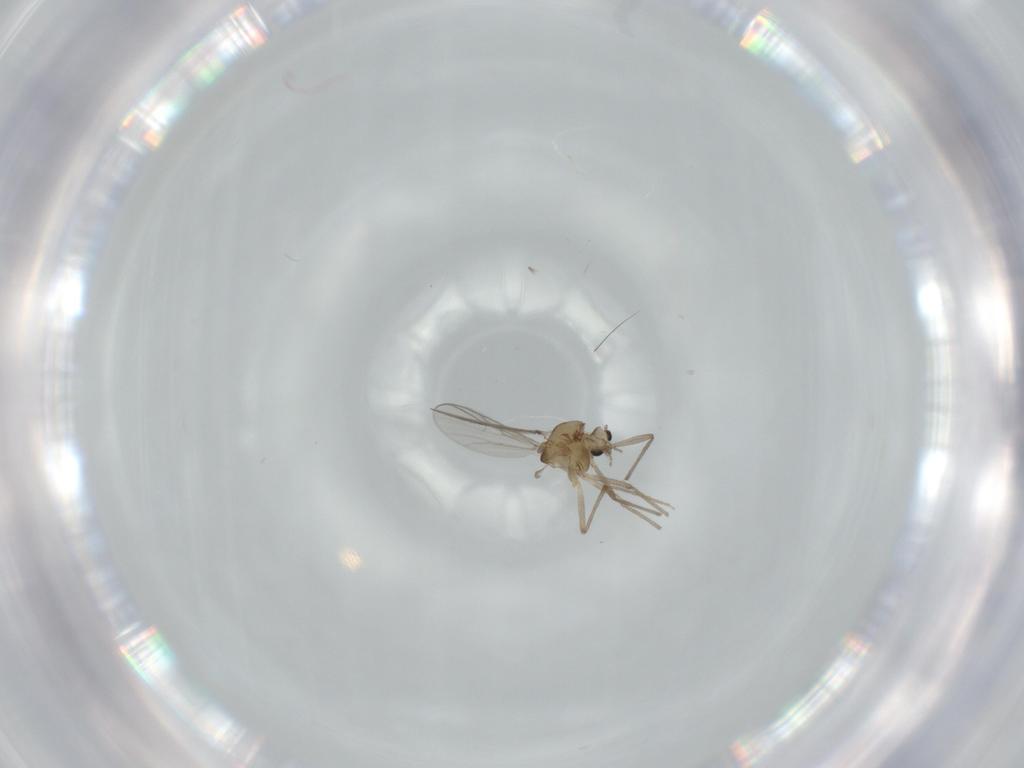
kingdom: Animalia
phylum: Arthropoda
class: Insecta
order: Diptera
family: Chironomidae
